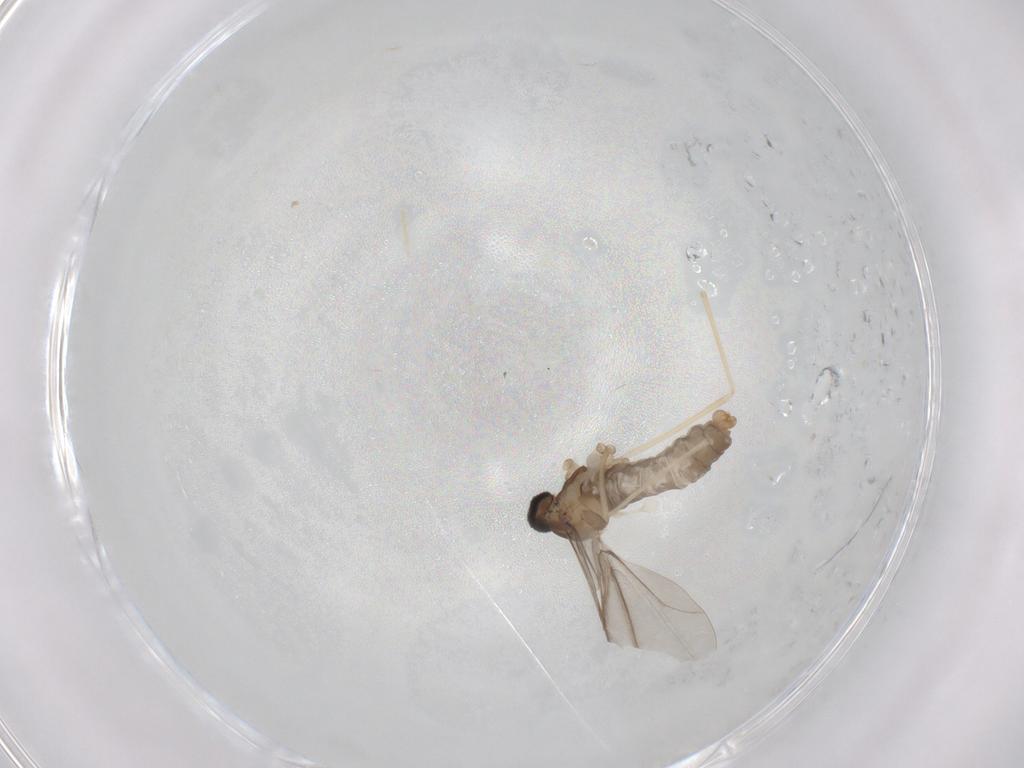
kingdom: Animalia
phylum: Arthropoda
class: Insecta
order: Diptera
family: Cecidomyiidae
